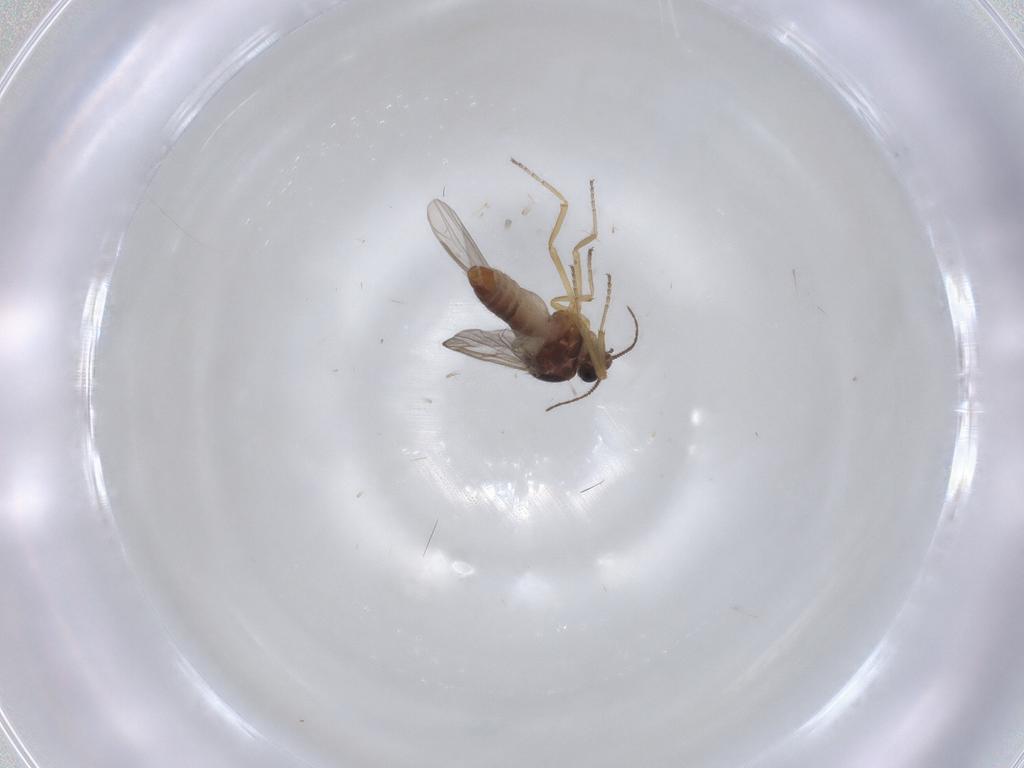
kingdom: Animalia
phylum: Arthropoda
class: Insecta
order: Diptera
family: Ceratopogonidae
